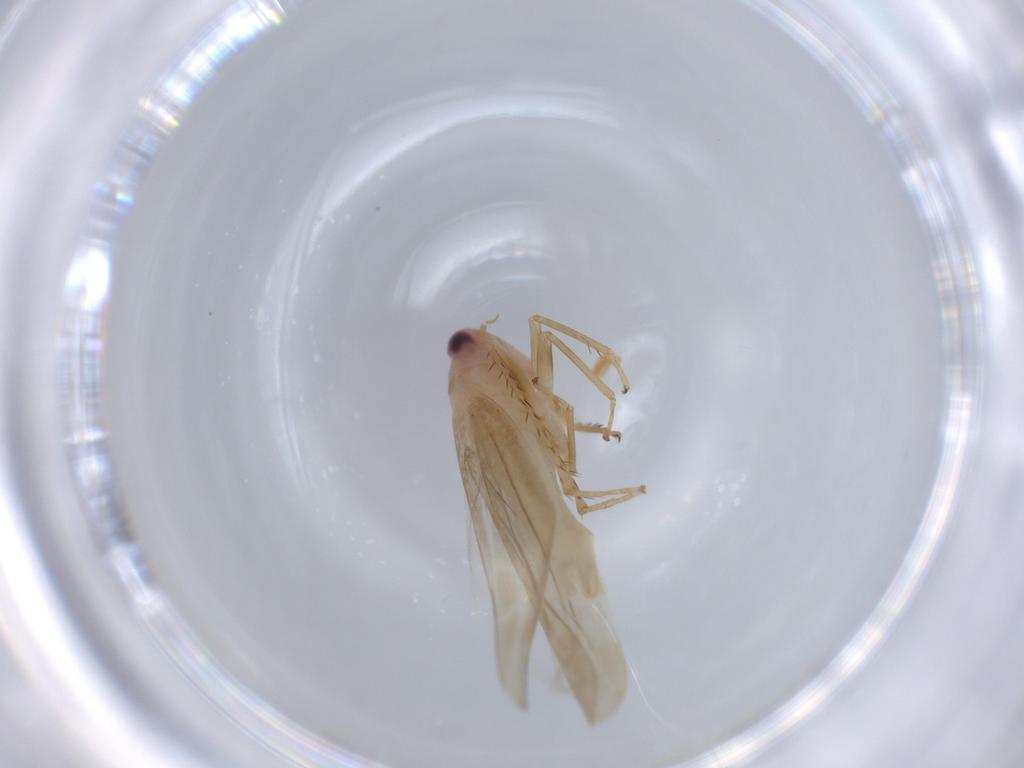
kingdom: Animalia
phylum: Arthropoda
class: Insecta
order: Hemiptera
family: Cicadellidae
